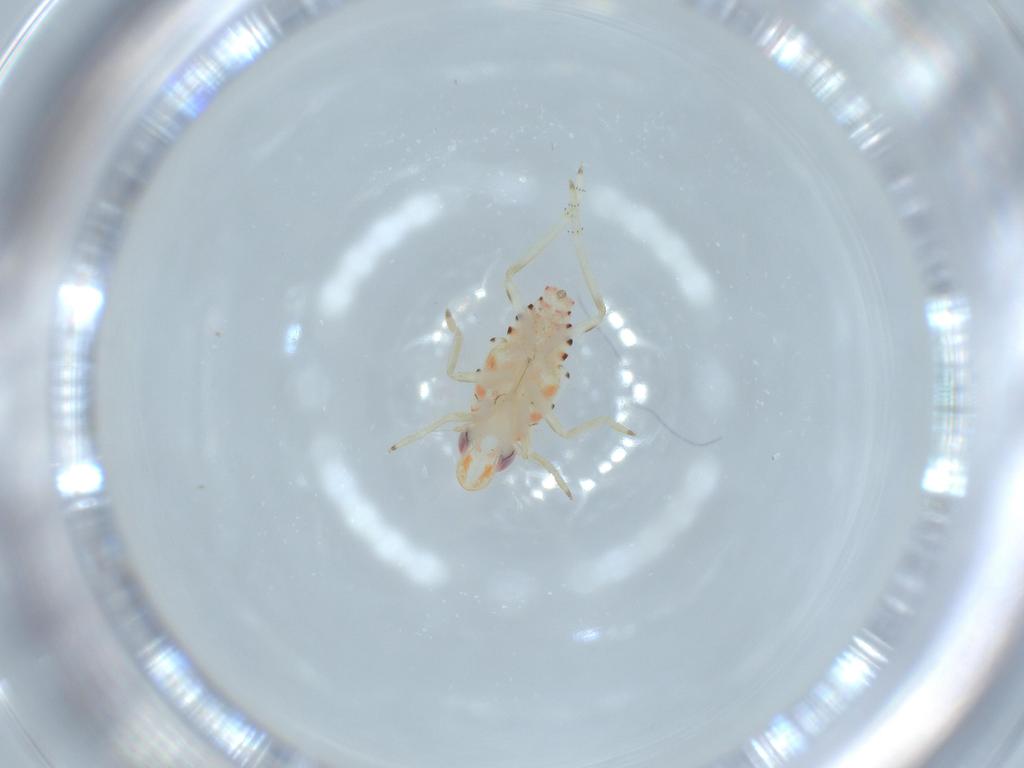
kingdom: Animalia
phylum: Arthropoda
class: Insecta
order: Hemiptera
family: Tropiduchidae
